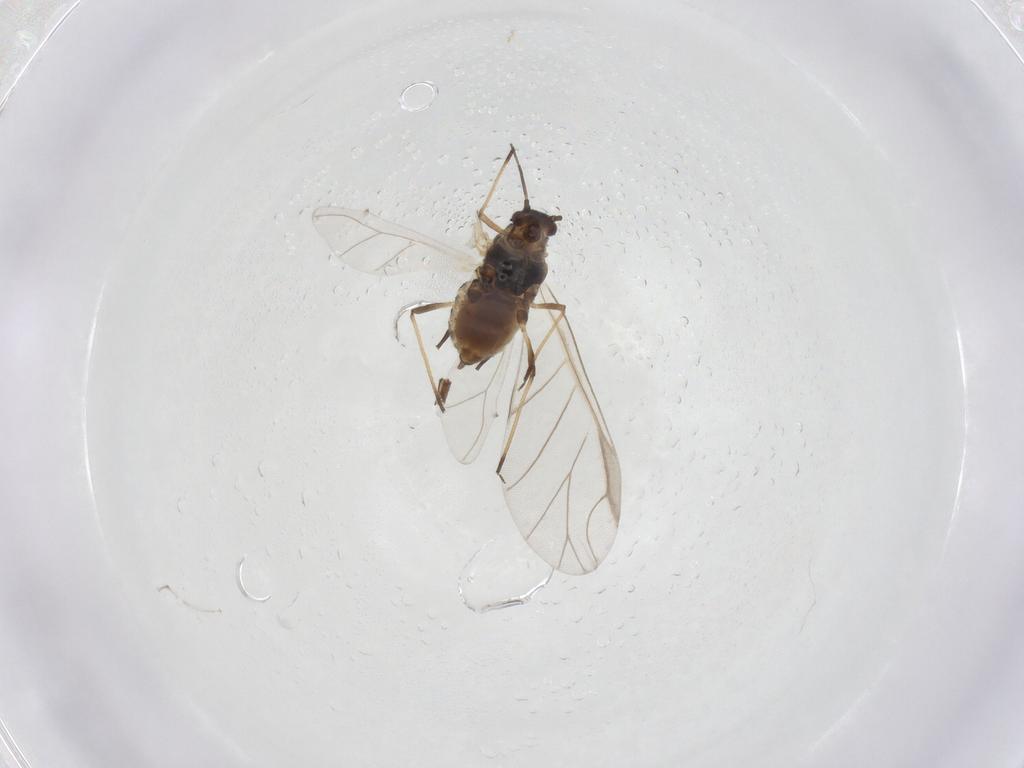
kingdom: Animalia
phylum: Arthropoda
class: Insecta
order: Hemiptera
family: Aphididae
